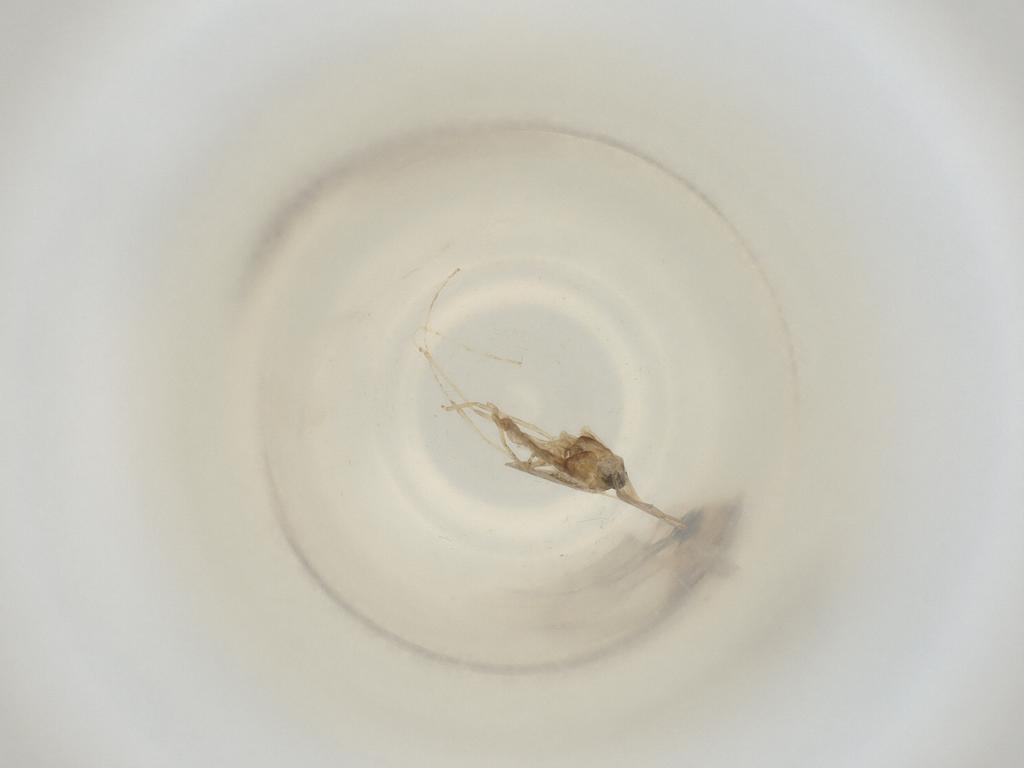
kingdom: Animalia
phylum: Arthropoda
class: Insecta
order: Diptera
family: Cecidomyiidae
